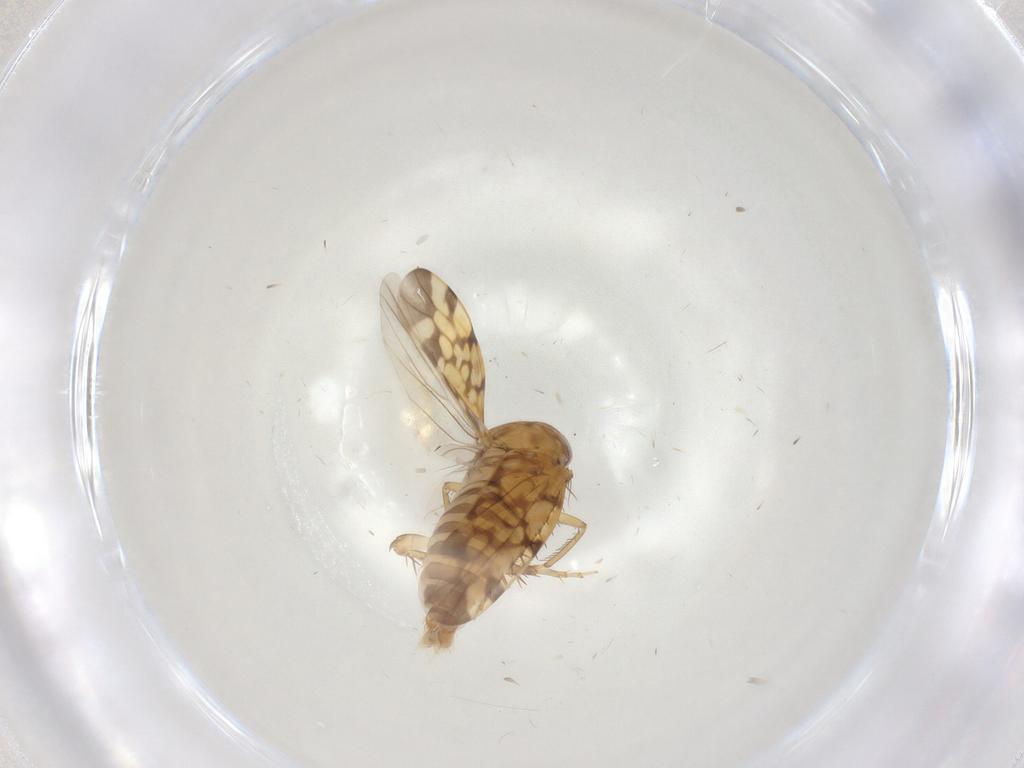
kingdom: Animalia
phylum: Arthropoda
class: Insecta
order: Hemiptera
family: Cicadellidae
